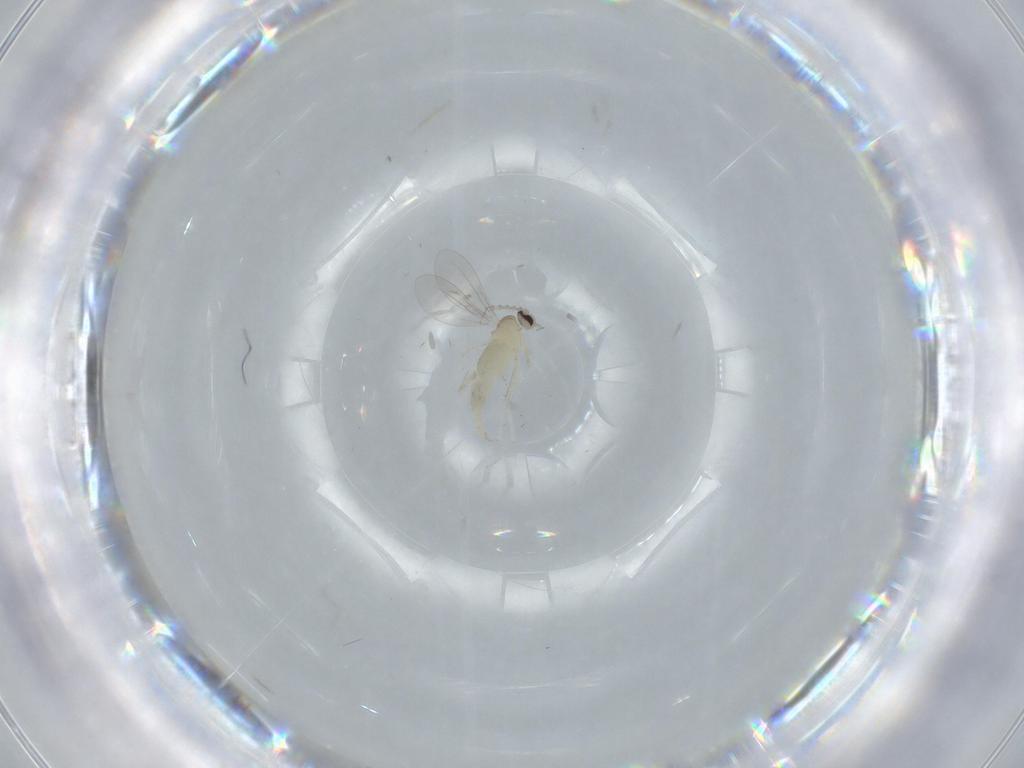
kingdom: Animalia
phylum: Arthropoda
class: Insecta
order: Diptera
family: Cecidomyiidae
